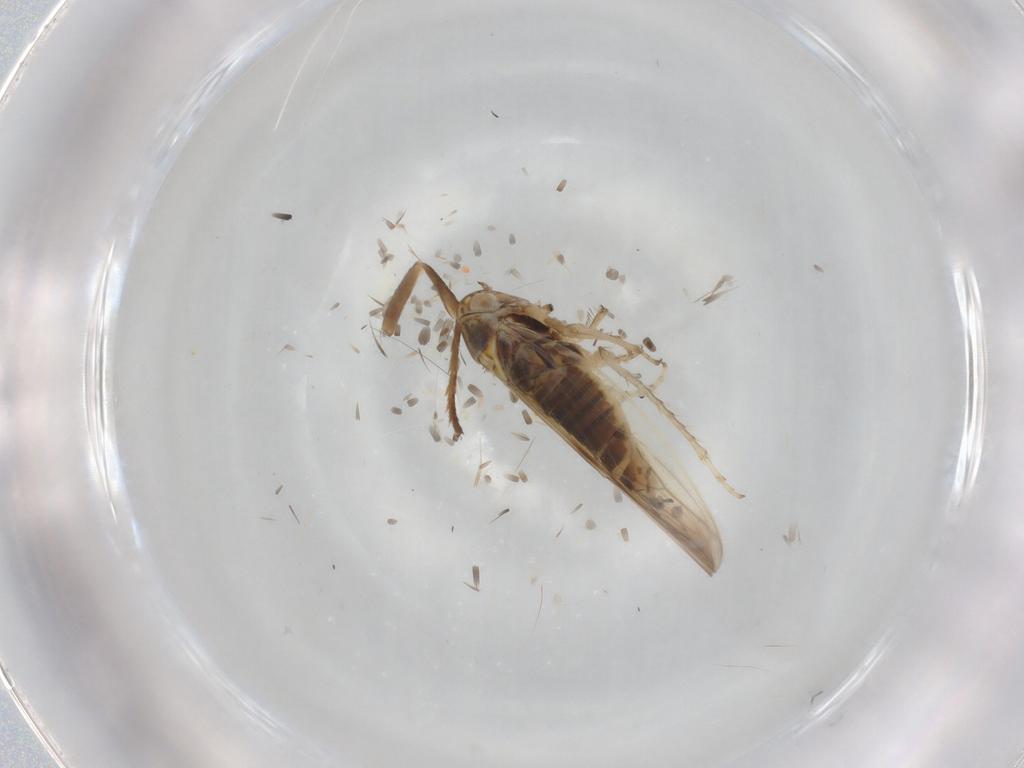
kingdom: Animalia
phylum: Arthropoda
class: Insecta
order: Hemiptera
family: Cicadellidae
